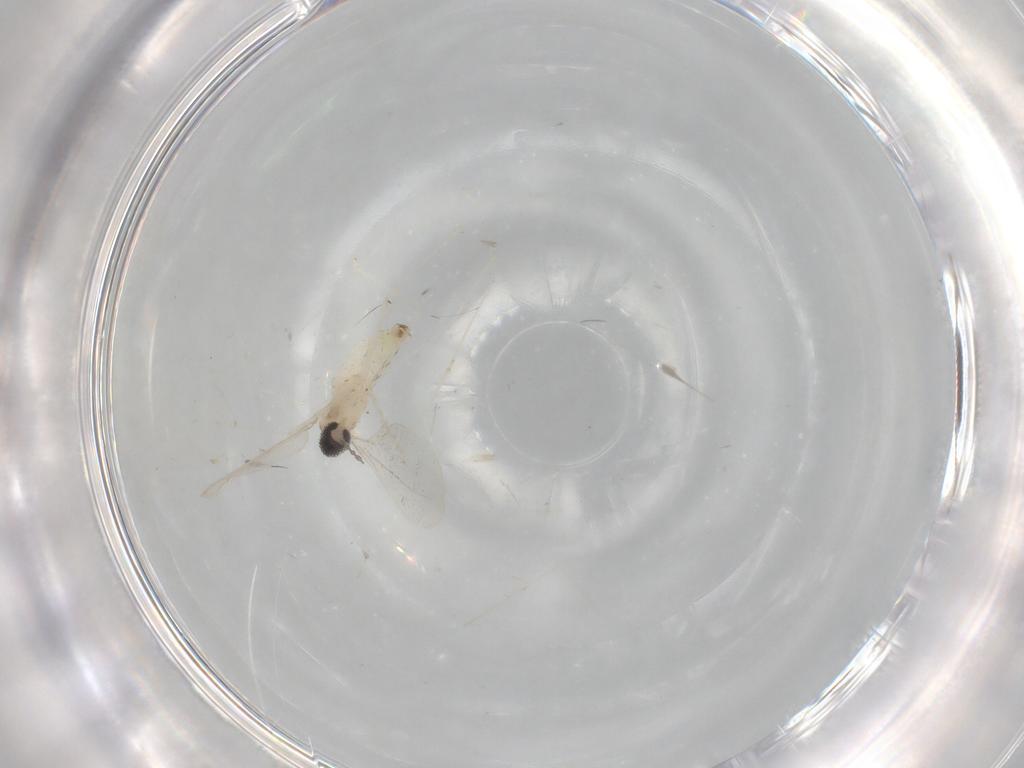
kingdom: Animalia
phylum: Arthropoda
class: Insecta
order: Diptera
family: Cecidomyiidae
